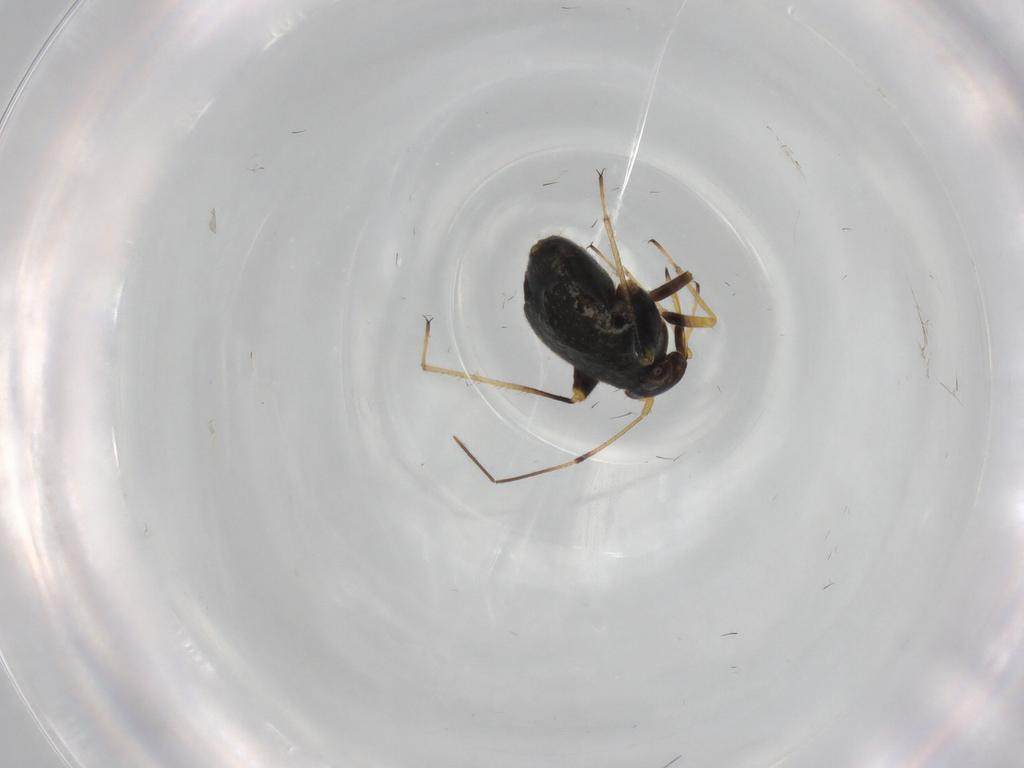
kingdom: Animalia
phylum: Arthropoda
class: Insecta
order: Hemiptera
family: Miridae
